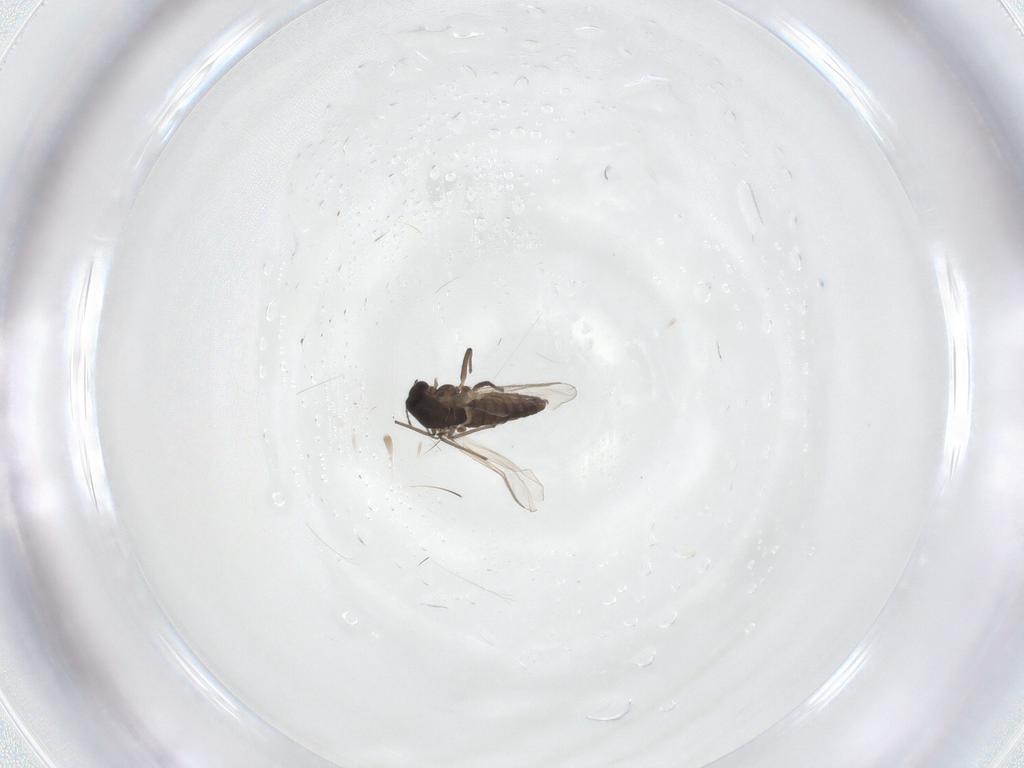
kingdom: Animalia
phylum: Arthropoda
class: Insecta
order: Diptera
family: Chironomidae
